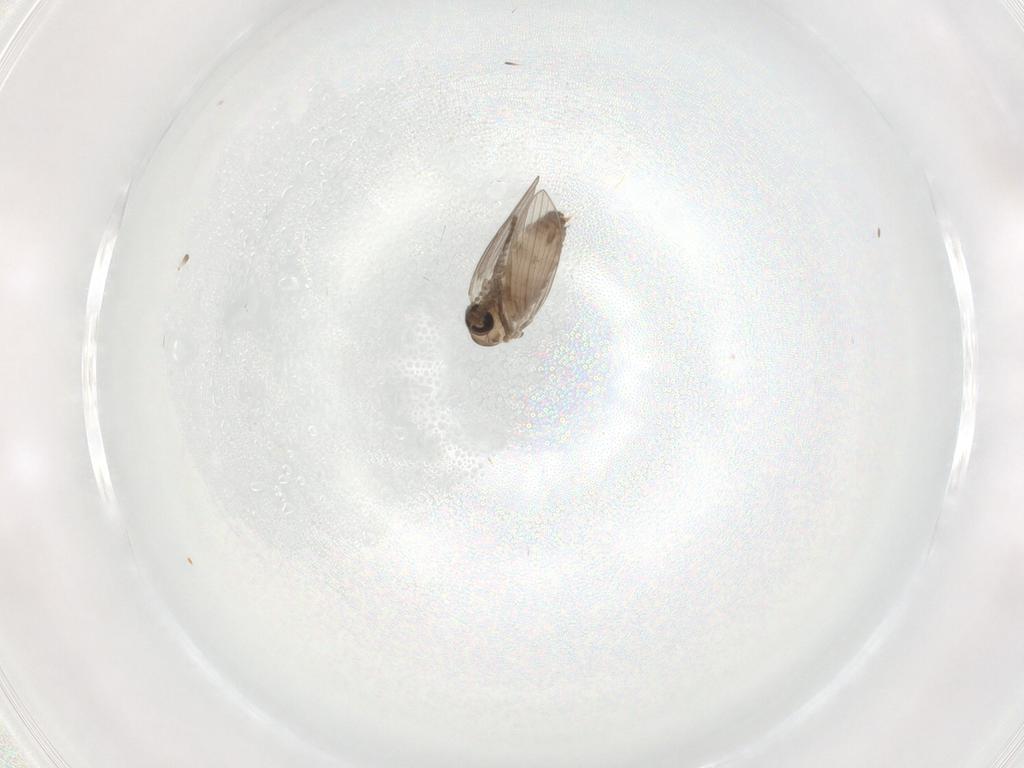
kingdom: Animalia
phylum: Arthropoda
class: Insecta
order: Diptera
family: Psychodidae
